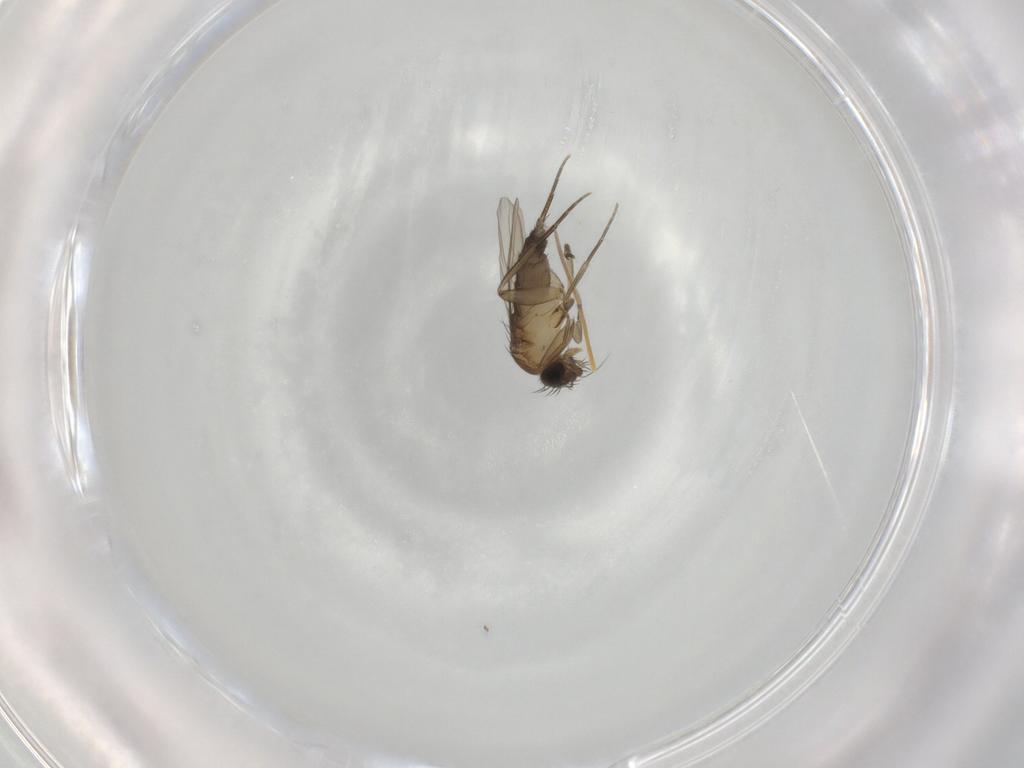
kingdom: Animalia
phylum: Arthropoda
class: Insecta
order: Diptera
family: Phoridae
